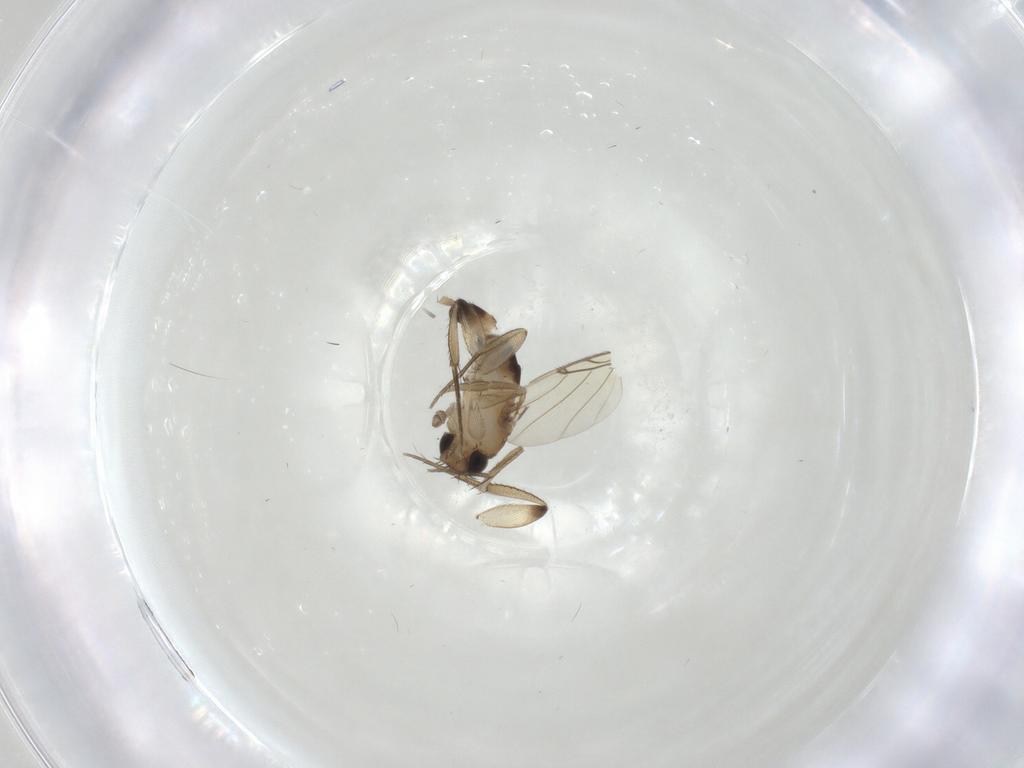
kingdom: Animalia
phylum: Arthropoda
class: Insecta
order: Diptera
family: Phoridae
